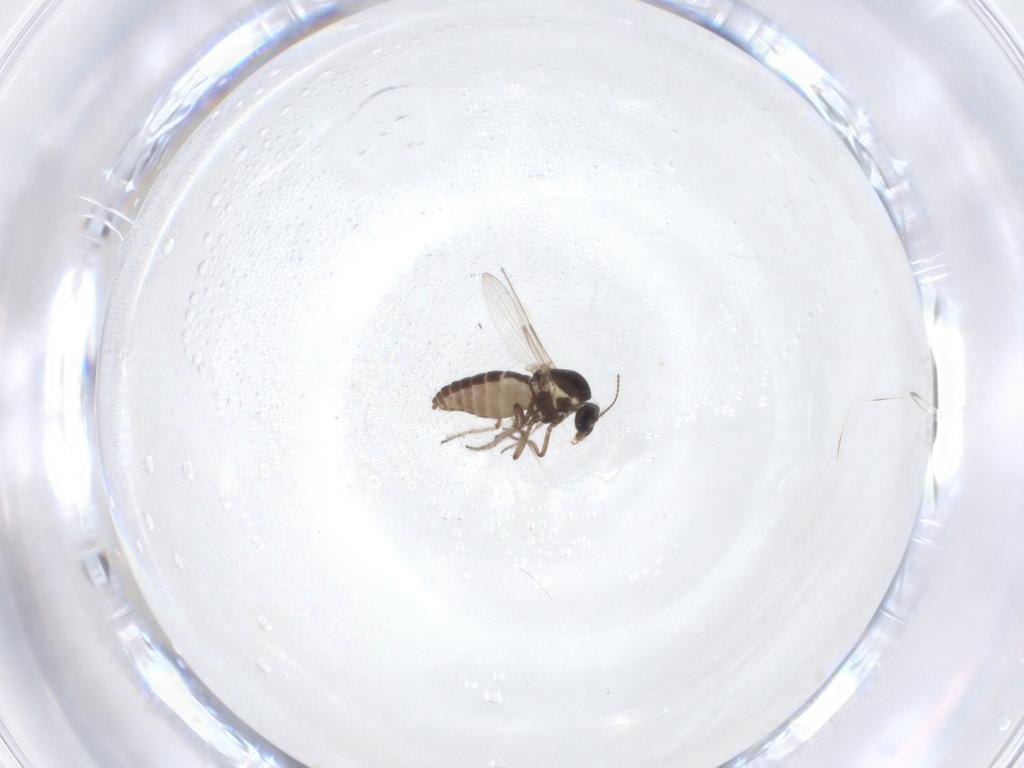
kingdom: Animalia
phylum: Arthropoda
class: Insecta
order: Diptera
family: Ceratopogonidae
